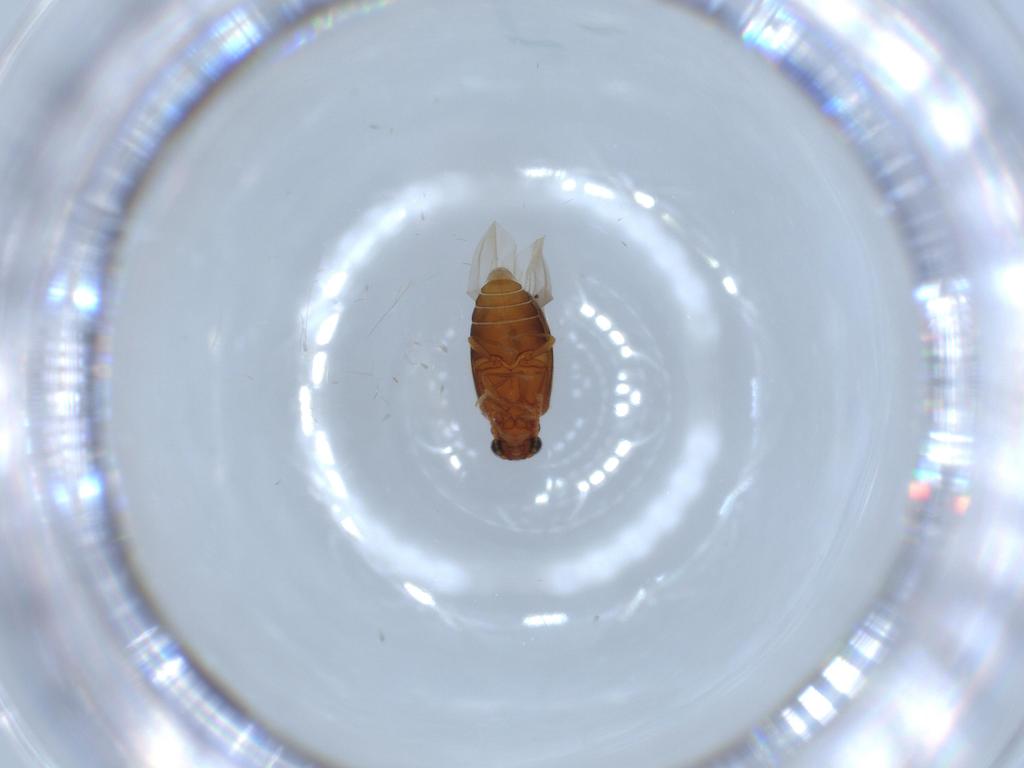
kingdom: Animalia
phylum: Arthropoda
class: Insecta
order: Coleoptera
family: Aderidae
